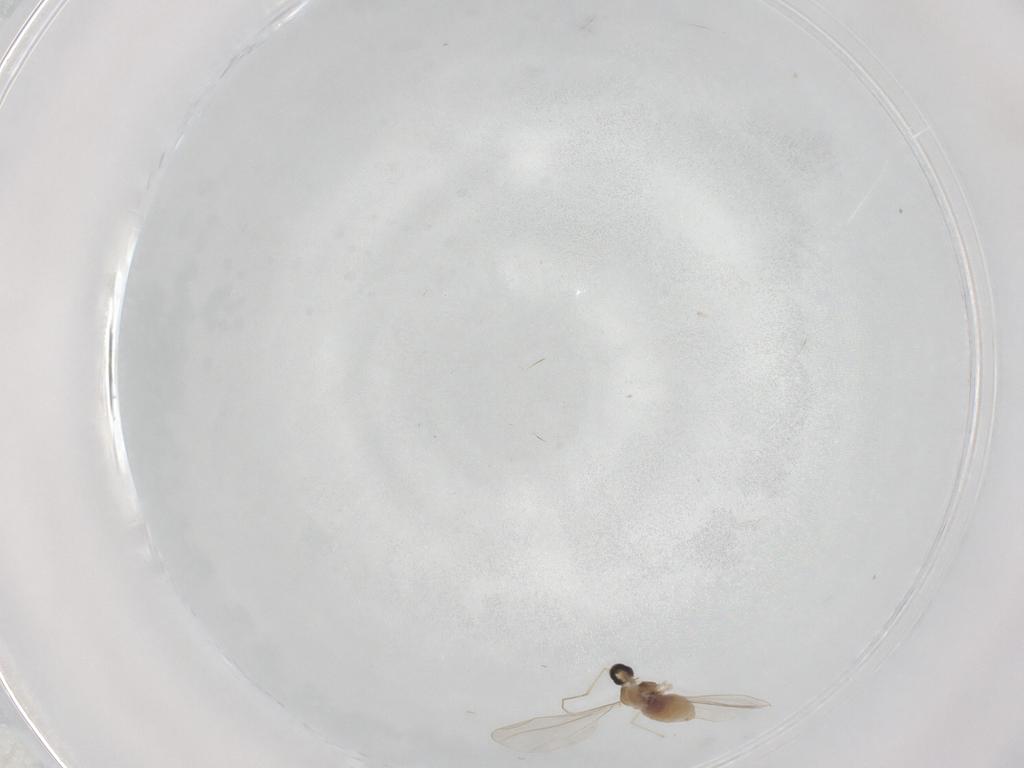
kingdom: Animalia
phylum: Arthropoda
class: Insecta
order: Diptera
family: Cecidomyiidae
